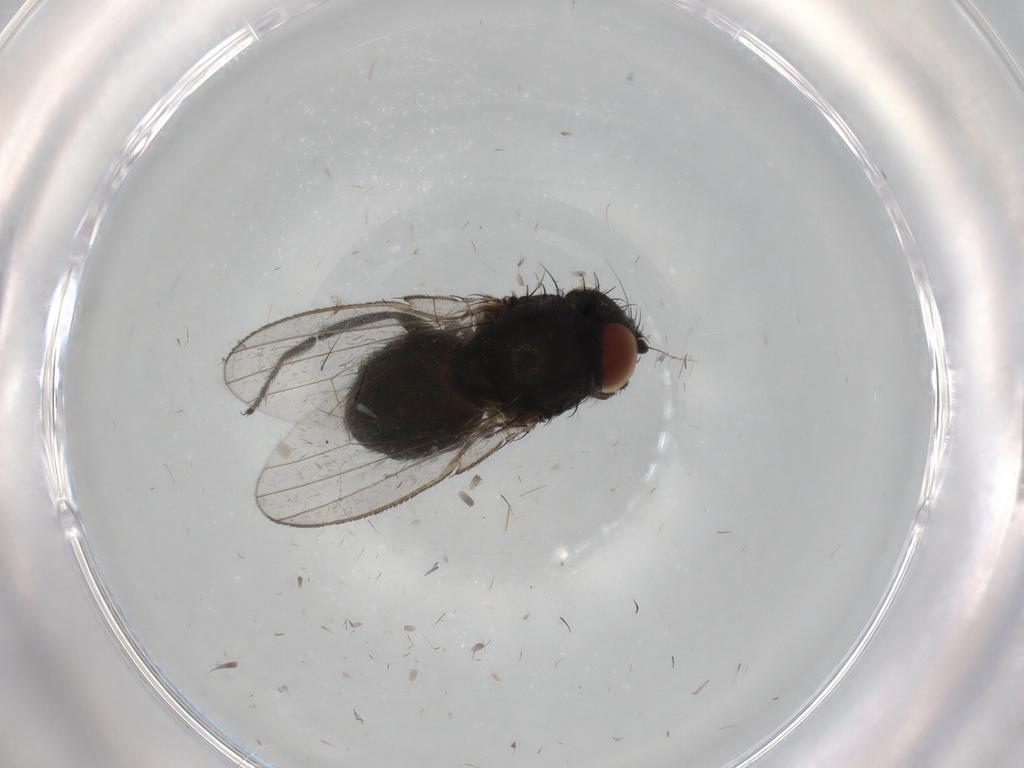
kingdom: Animalia
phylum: Arthropoda
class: Insecta
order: Diptera
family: Milichiidae
